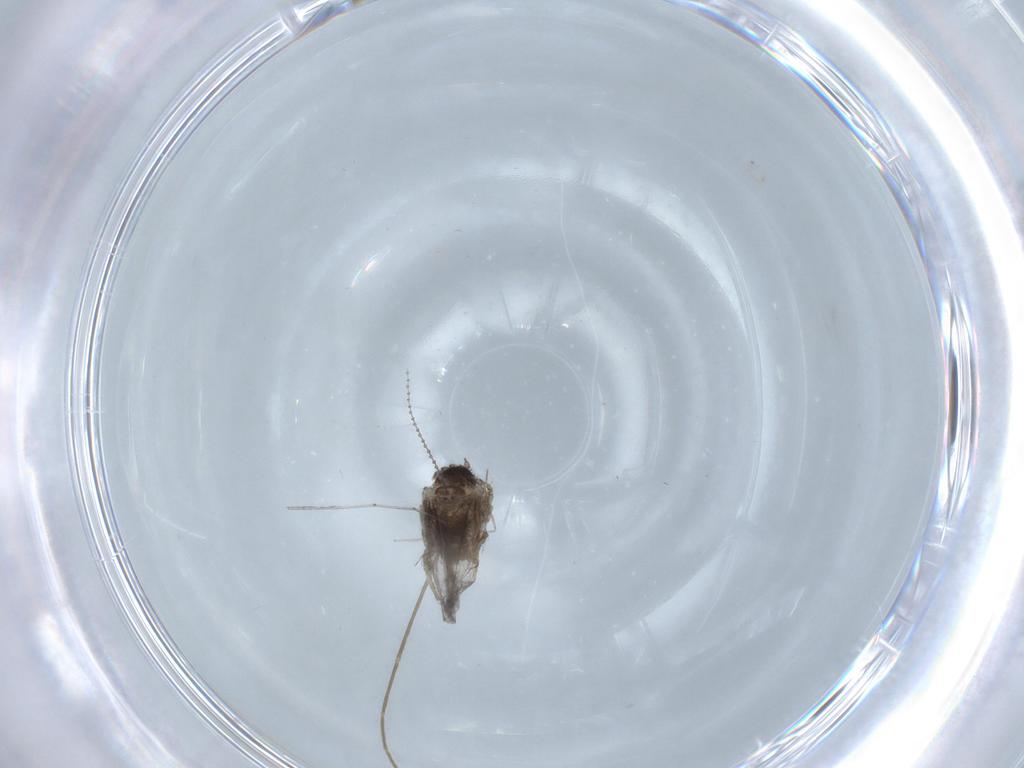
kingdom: Animalia
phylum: Arthropoda
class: Insecta
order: Diptera
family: Cecidomyiidae
